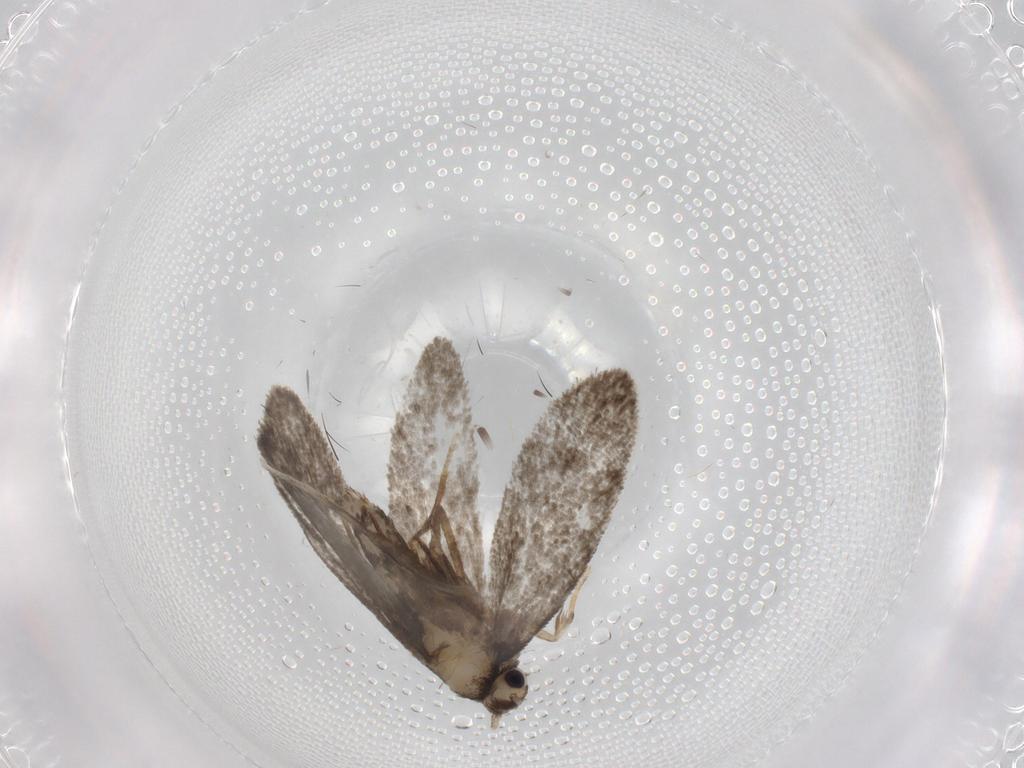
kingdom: Animalia
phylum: Arthropoda
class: Insecta
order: Lepidoptera
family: Psychidae
